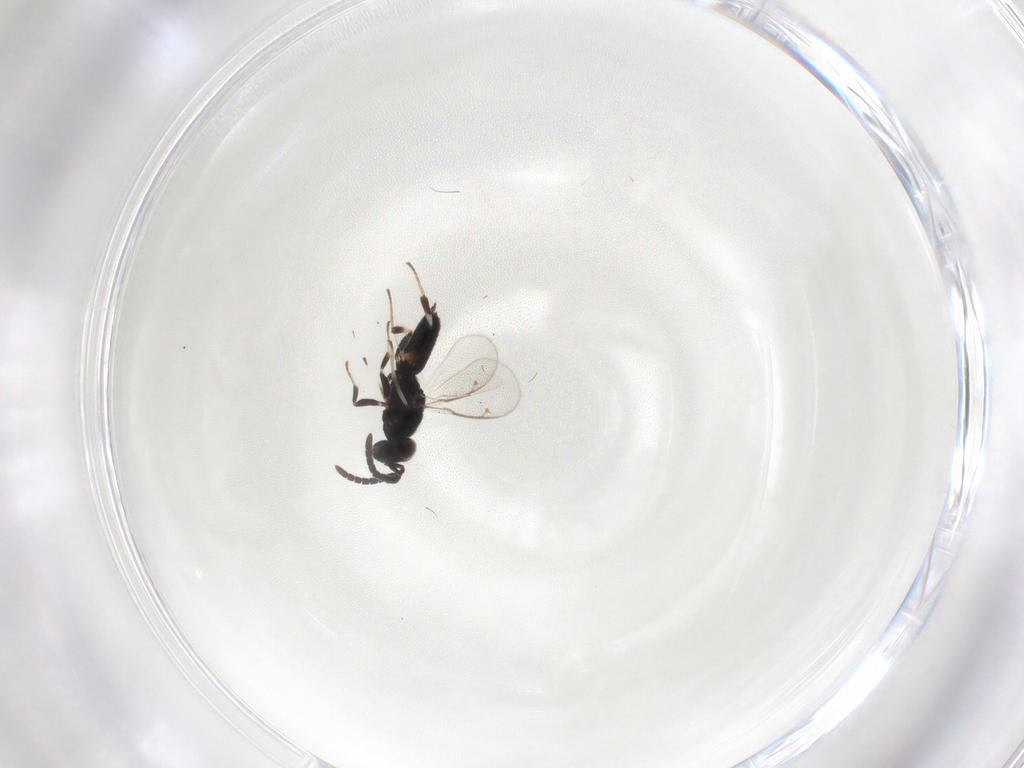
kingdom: Animalia
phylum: Arthropoda
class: Insecta
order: Hymenoptera
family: Eupelmidae
